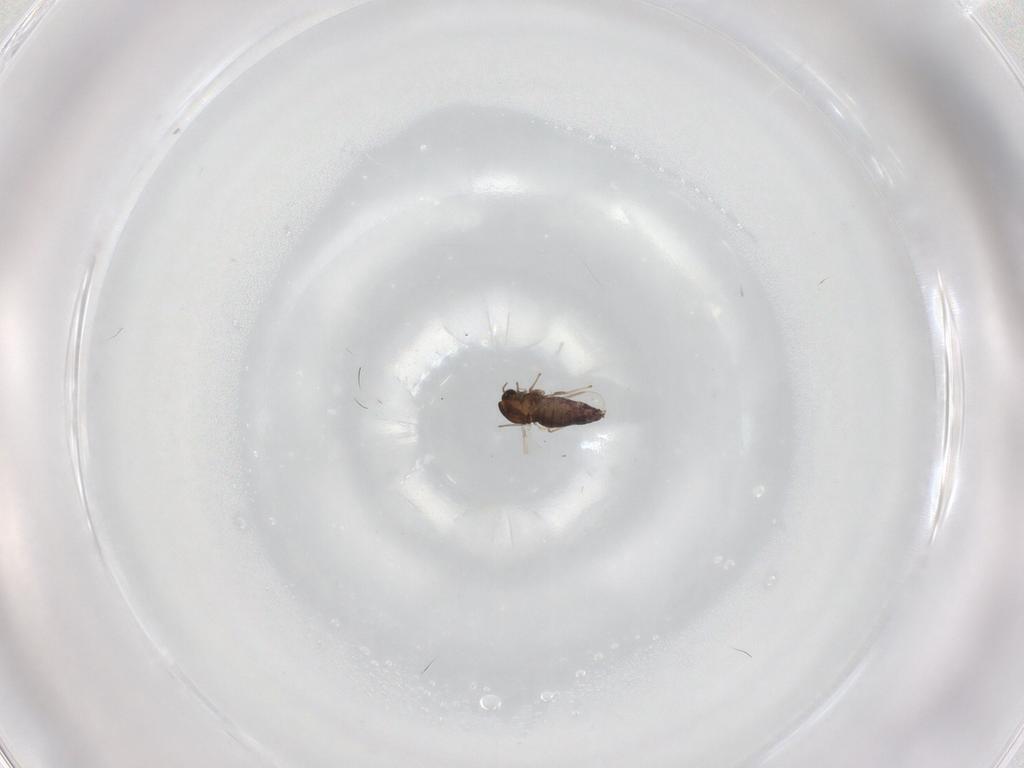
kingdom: Animalia
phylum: Arthropoda
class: Insecta
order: Diptera
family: Chironomidae
